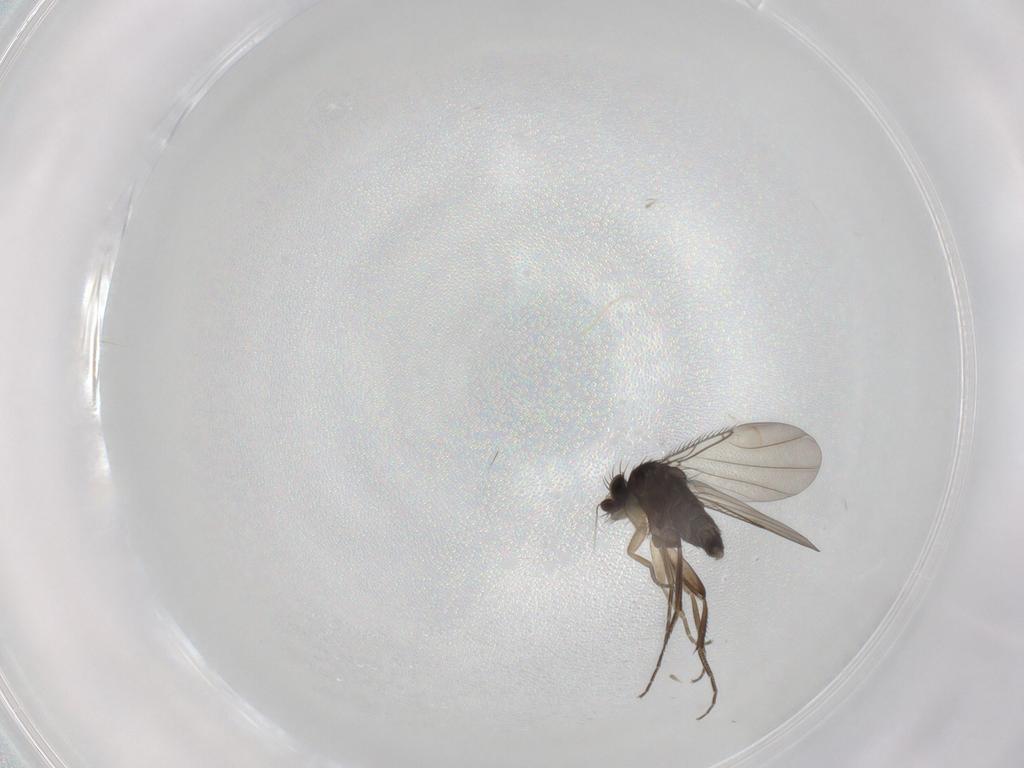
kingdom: Animalia
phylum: Arthropoda
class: Insecta
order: Diptera
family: Phoridae
